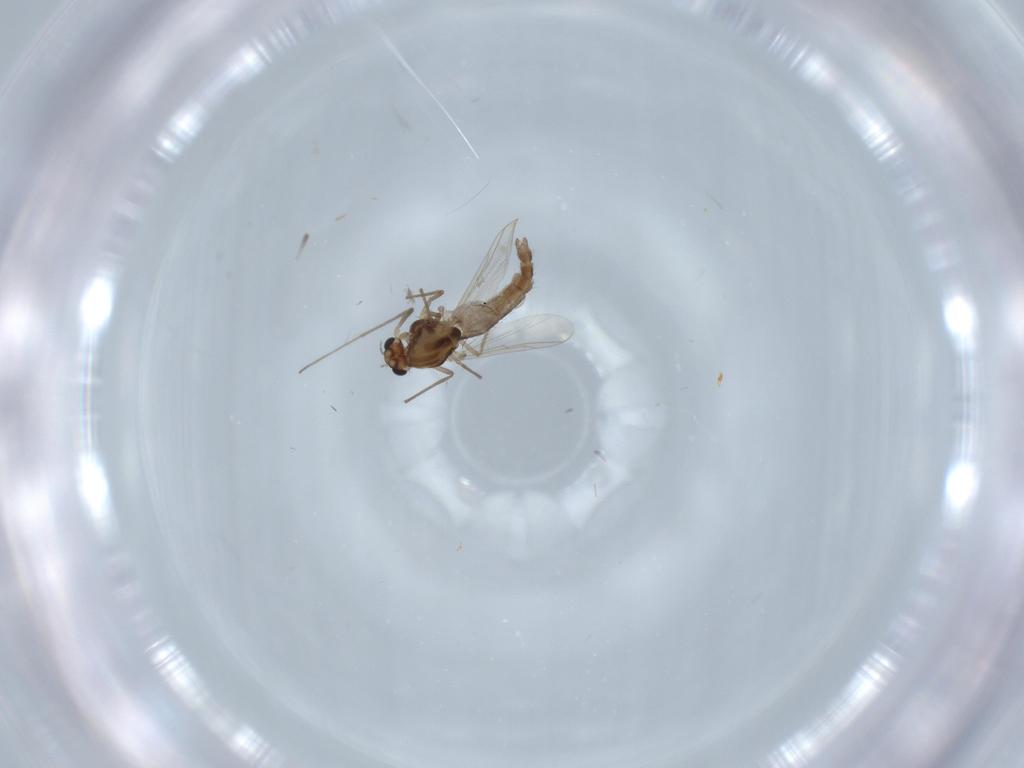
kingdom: Animalia
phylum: Arthropoda
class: Insecta
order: Diptera
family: Chironomidae
